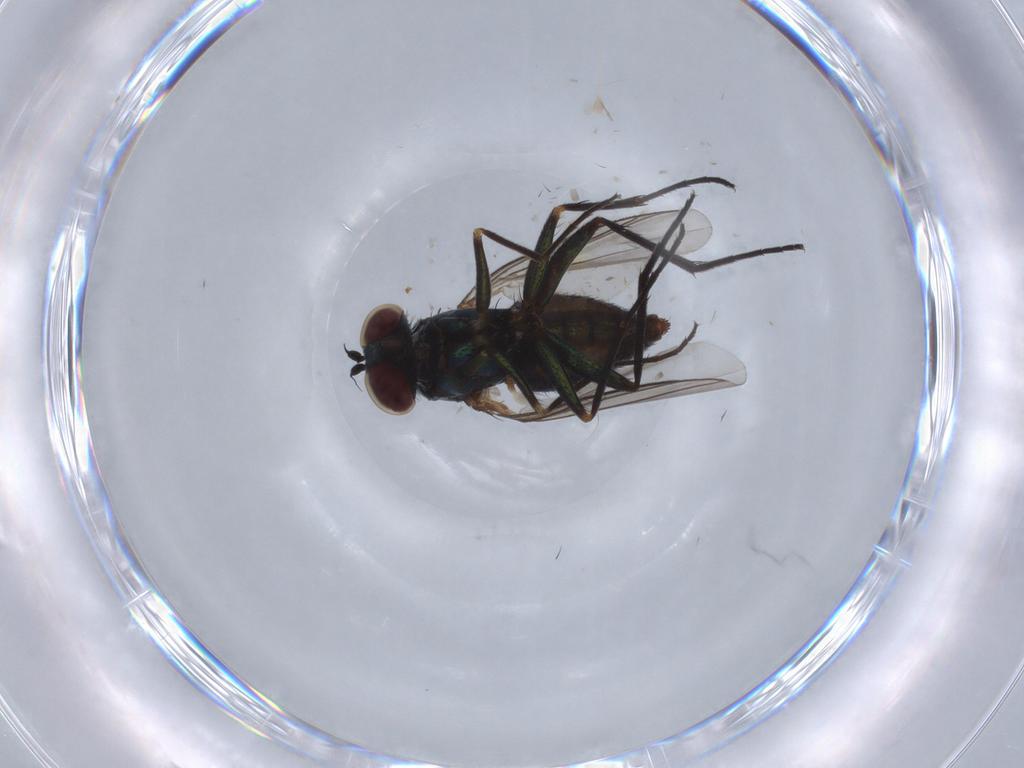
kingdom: Animalia
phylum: Arthropoda
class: Insecta
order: Diptera
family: Dolichopodidae
